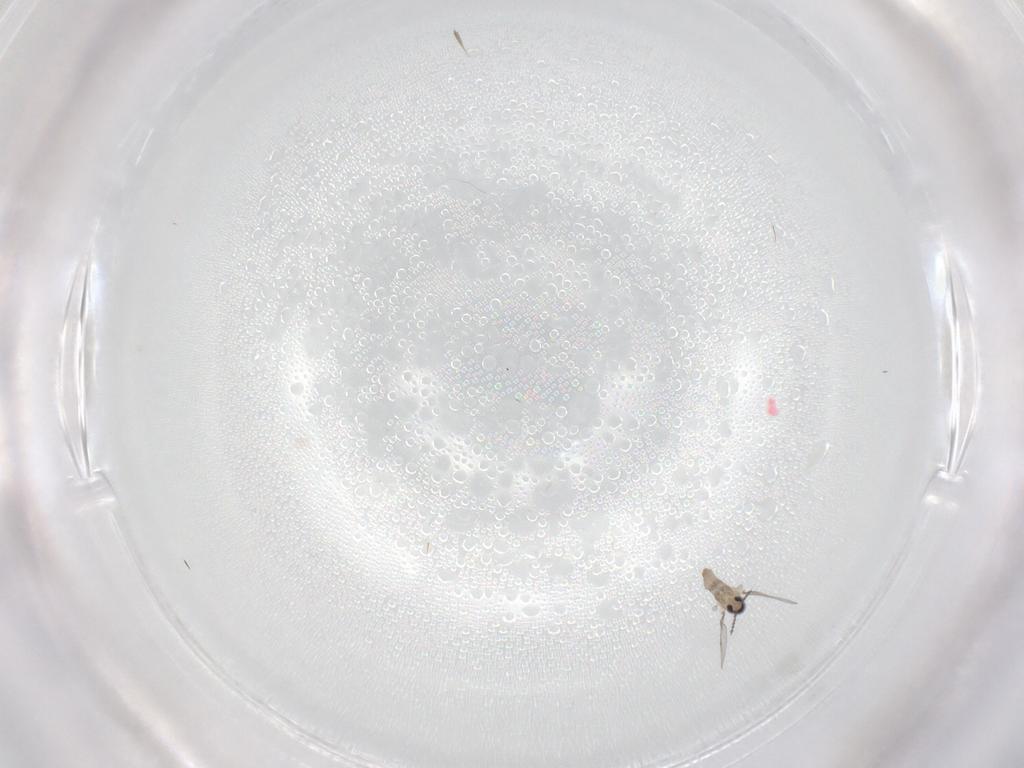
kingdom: Animalia
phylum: Arthropoda
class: Insecta
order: Diptera
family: Cecidomyiidae
